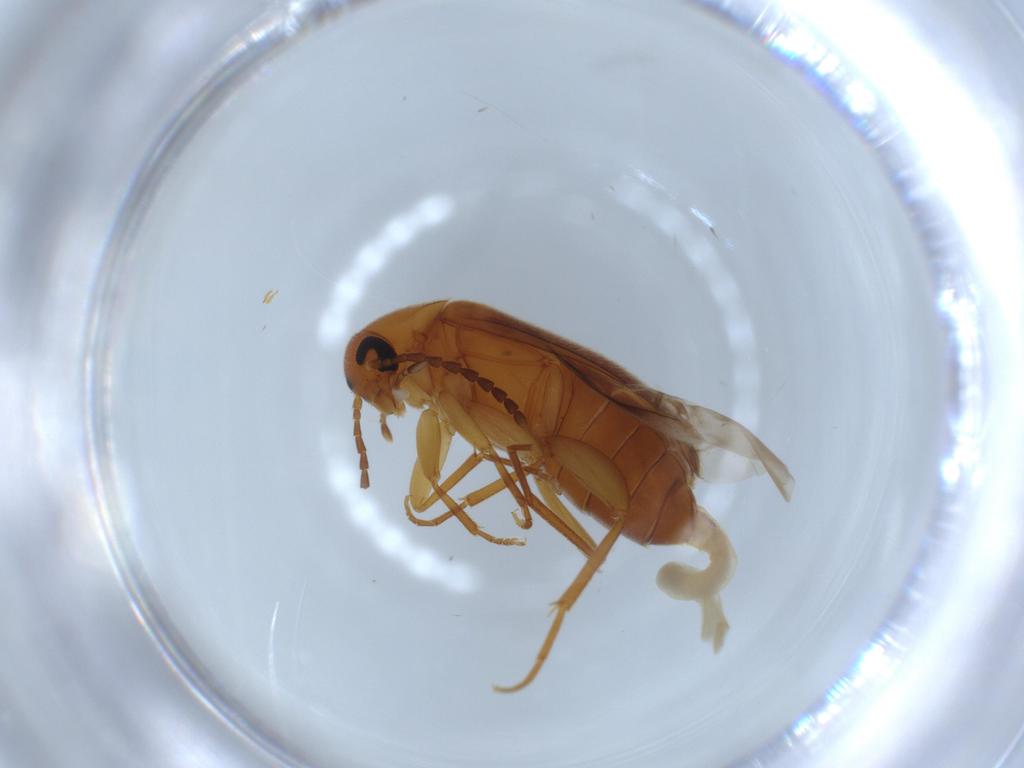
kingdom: Animalia
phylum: Arthropoda
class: Insecta
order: Coleoptera
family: Scraptiidae
